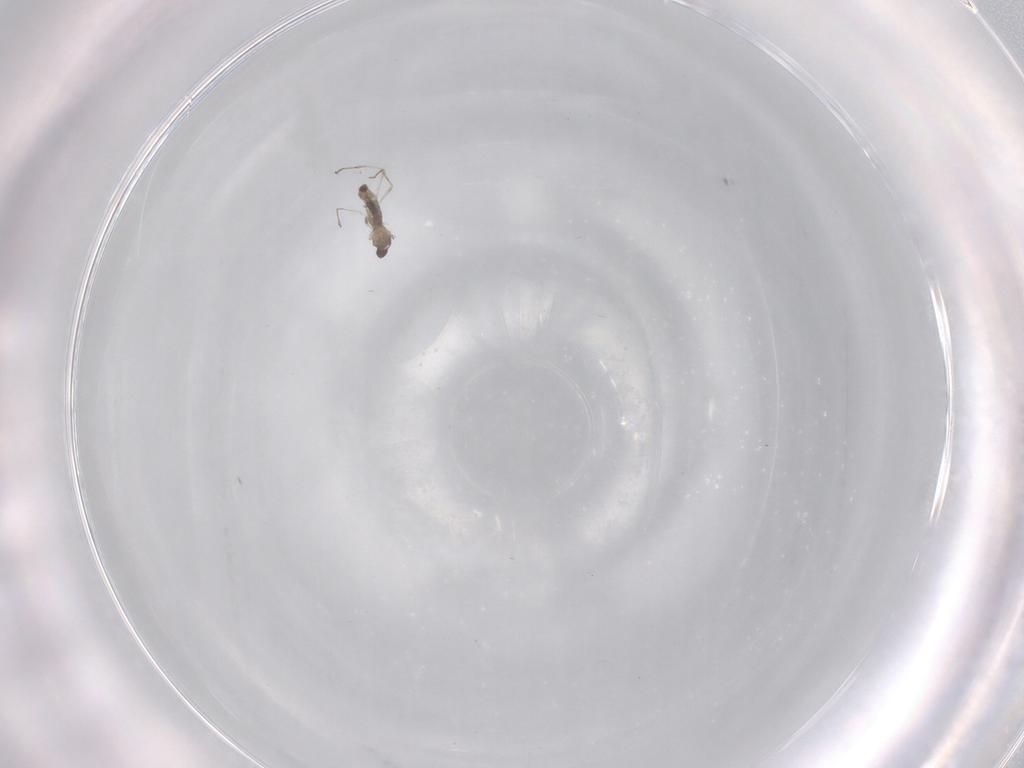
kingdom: Animalia
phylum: Arthropoda
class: Insecta
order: Diptera
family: Cecidomyiidae
